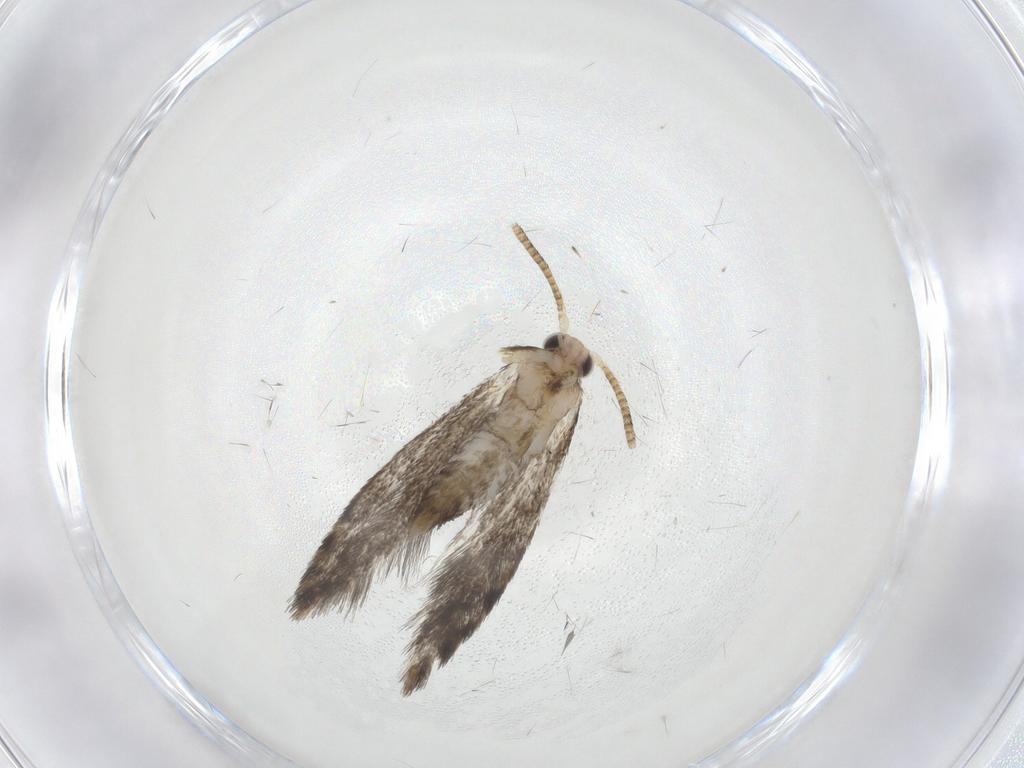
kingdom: Animalia
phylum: Arthropoda
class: Insecta
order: Lepidoptera
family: Tineidae
